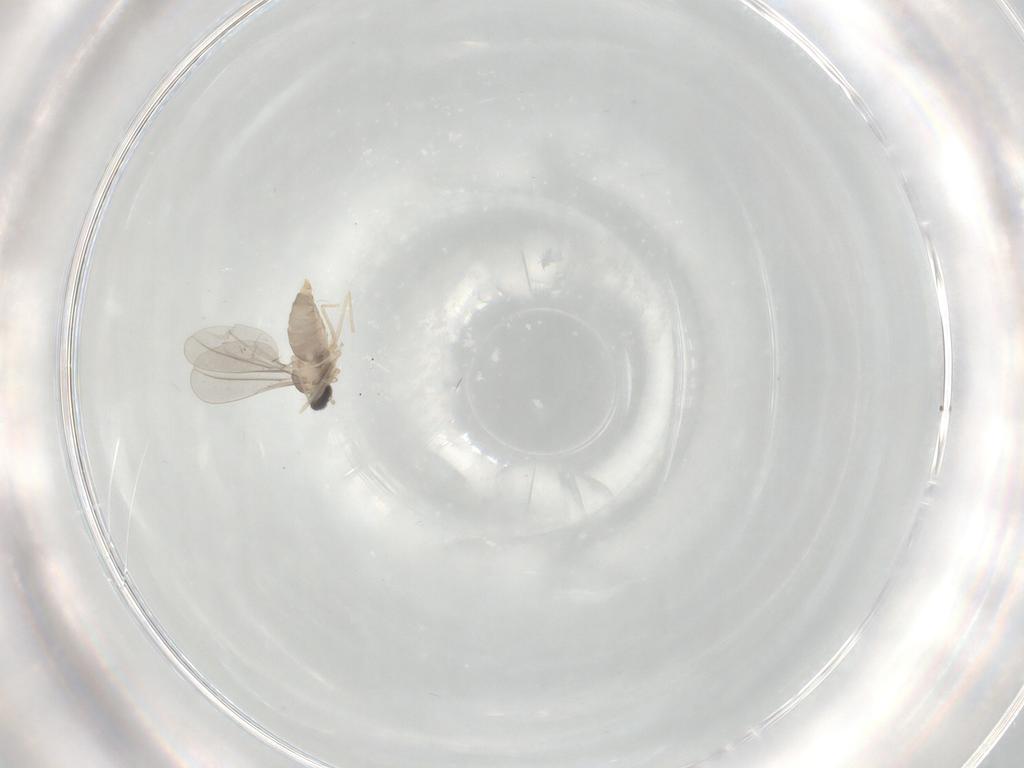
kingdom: Animalia
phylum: Arthropoda
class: Insecta
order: Diptera
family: Cecidomyiidae
